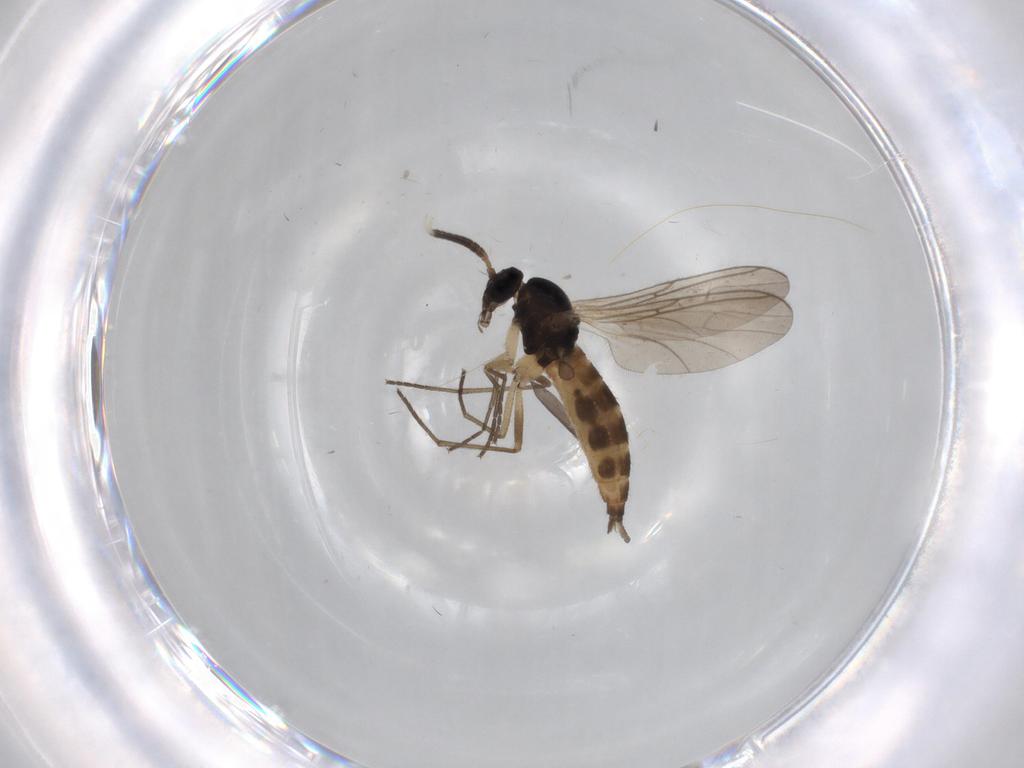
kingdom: Animalia
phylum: Arthropoda
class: Insecta
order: Diptera
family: Sciaridae
